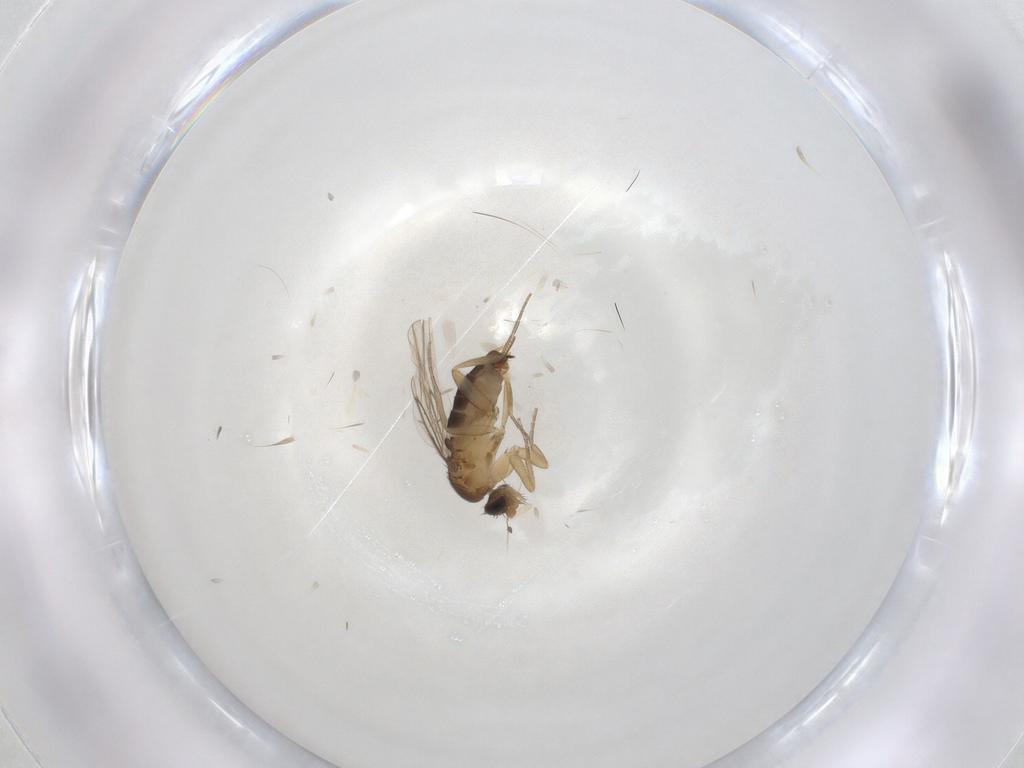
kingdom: Animalia
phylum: Arthropoda
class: Insecta
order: Diptera
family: Phoridae
